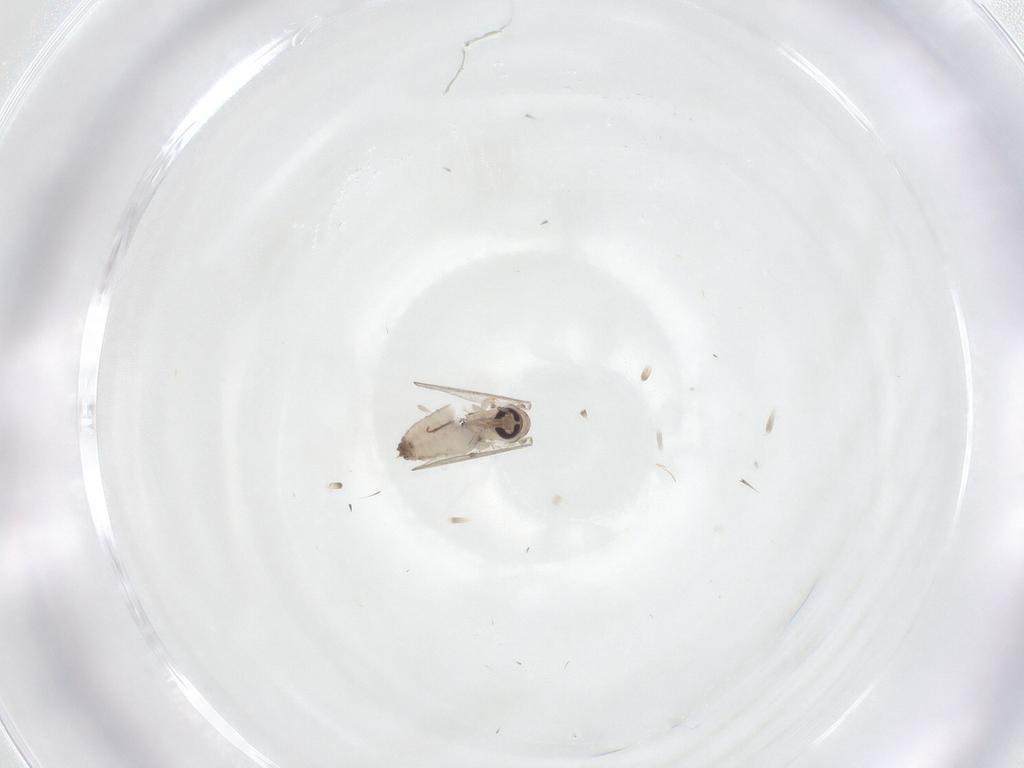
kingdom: Animalia
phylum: Arthropoda
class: Insecta
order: Diptera
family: Psychodidae
